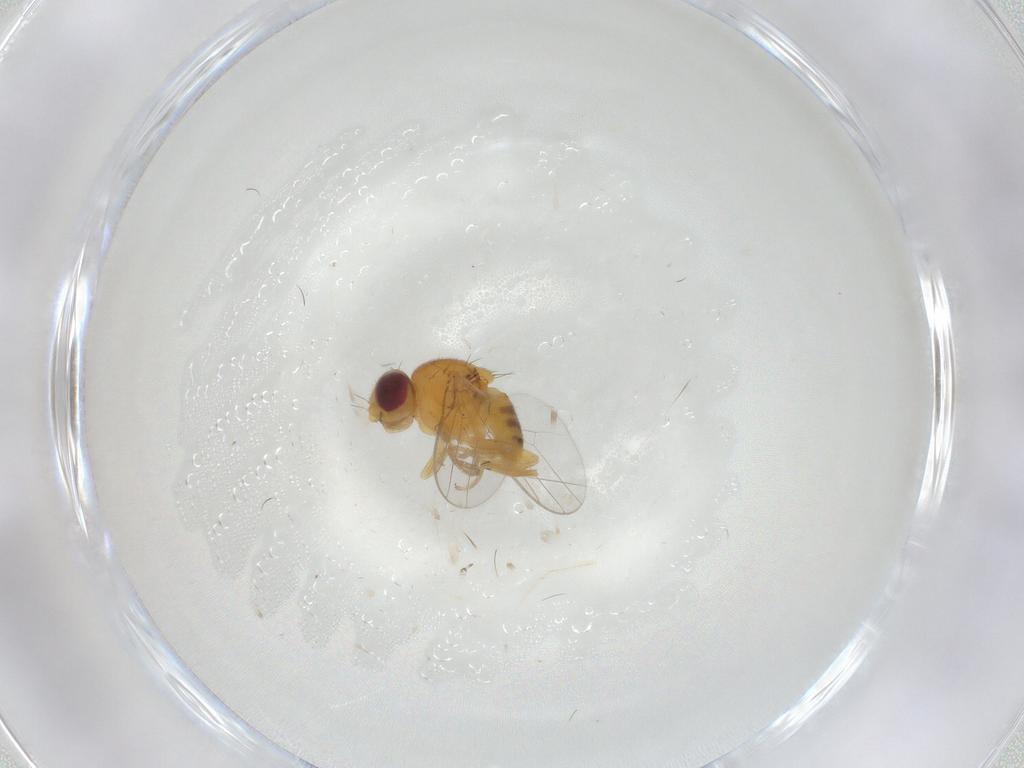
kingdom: Animalia
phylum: Arthropoda
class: Insecta
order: Diptera
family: Chloropidae
